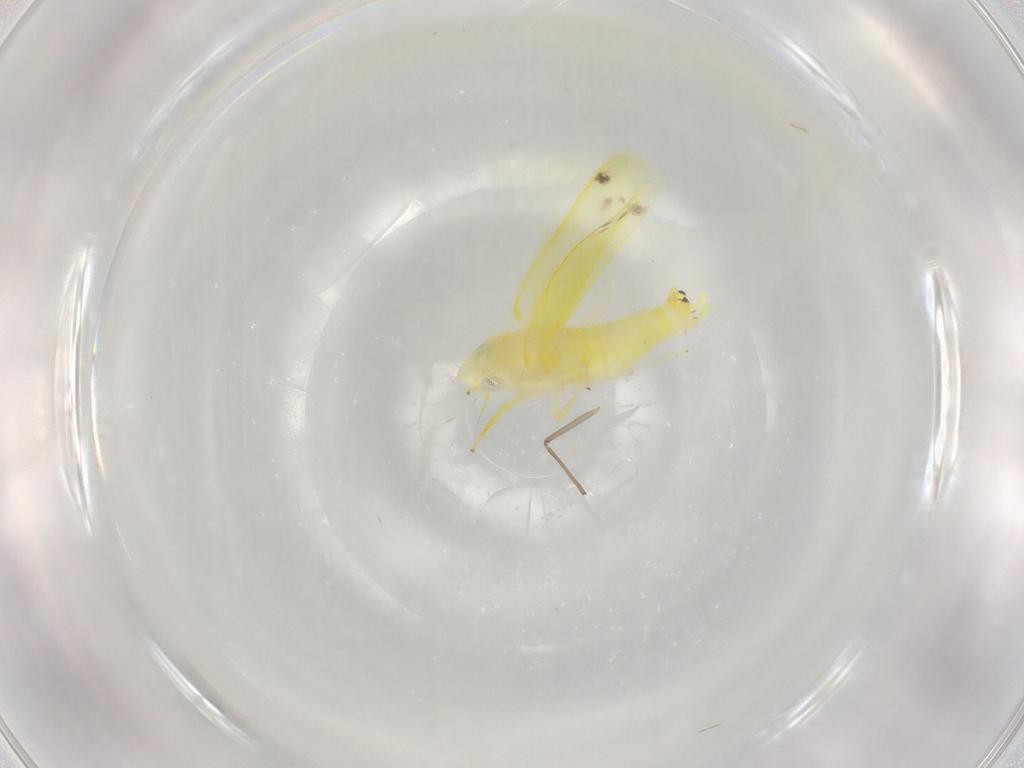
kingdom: Animalia
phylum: Arthropoda
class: Insecta
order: Hemiptera
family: Cicadellidae
